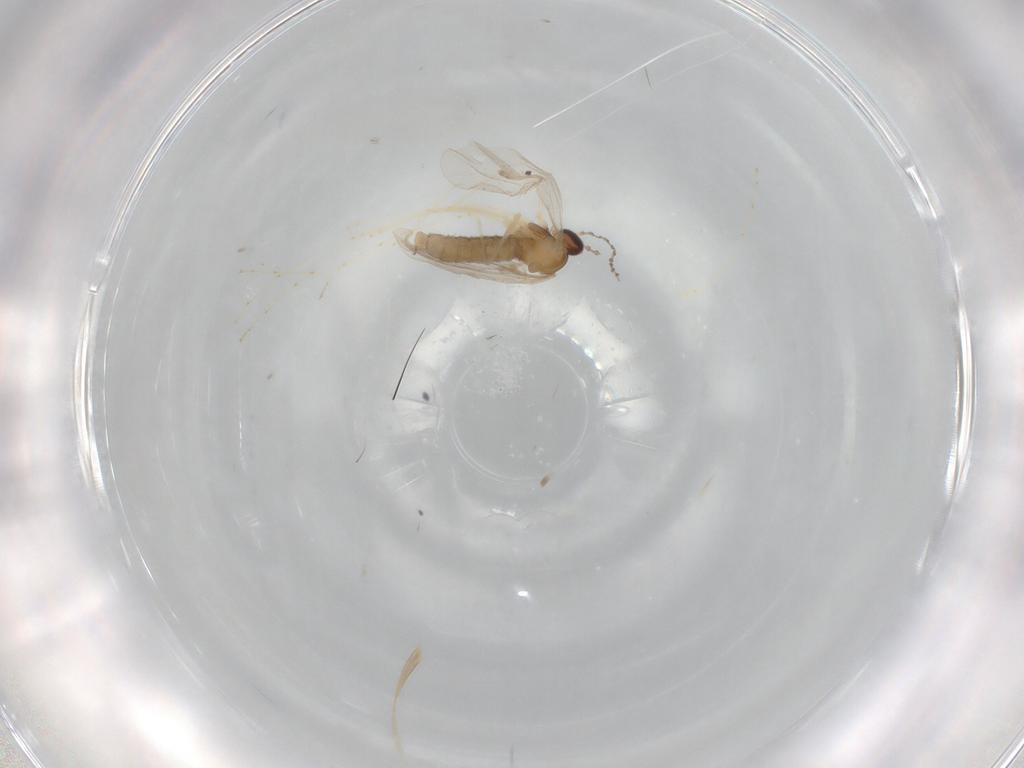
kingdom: Animalia
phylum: Arthropoda
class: Insecta
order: Diptera
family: Cecidomyiidae
